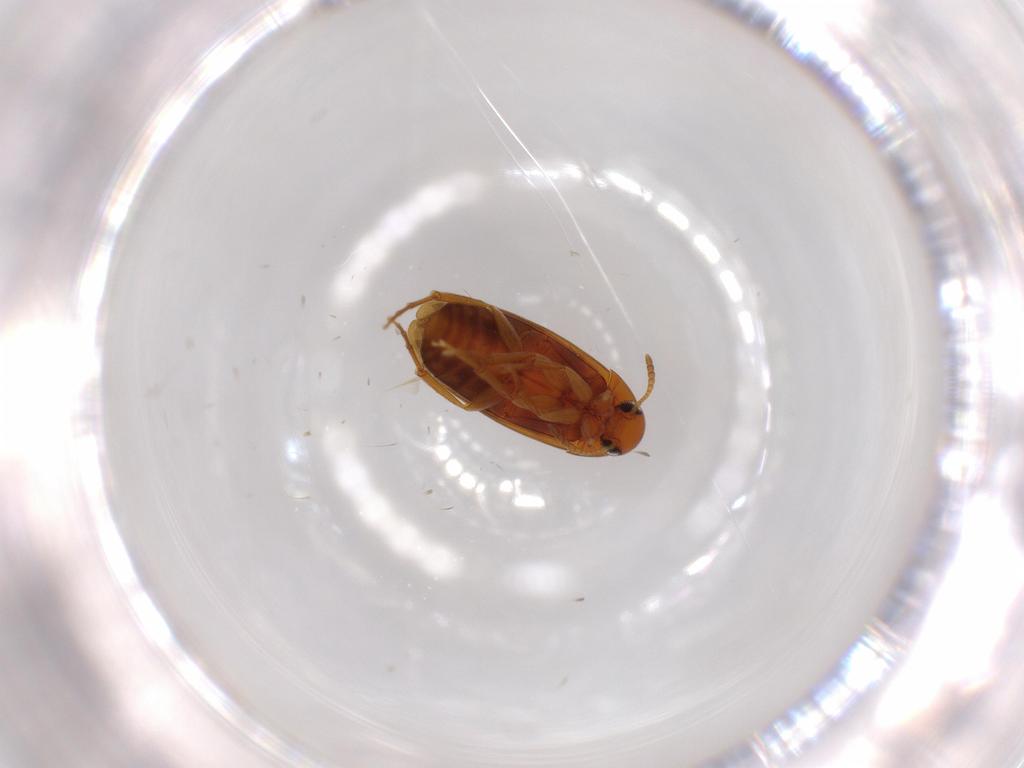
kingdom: Animalia
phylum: Arthropoda
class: Insecta
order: Coleoptera
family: Scraptiidae
